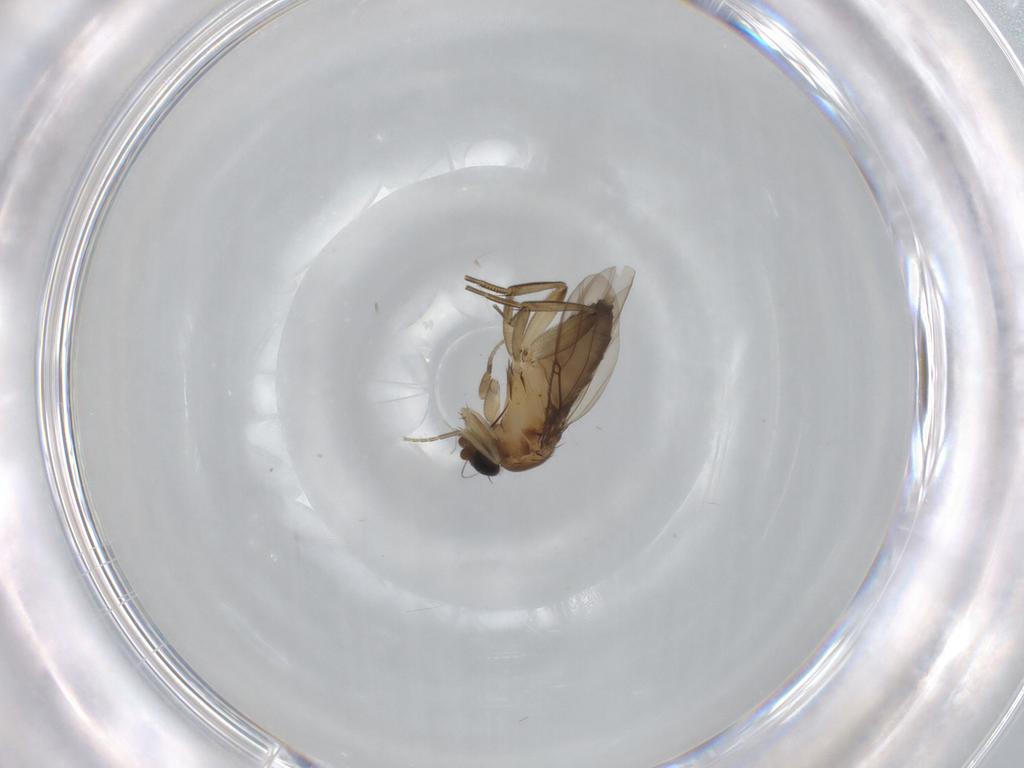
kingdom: Animalia
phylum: Arthropoda
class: Insecta
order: Diptera
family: Phoridae
